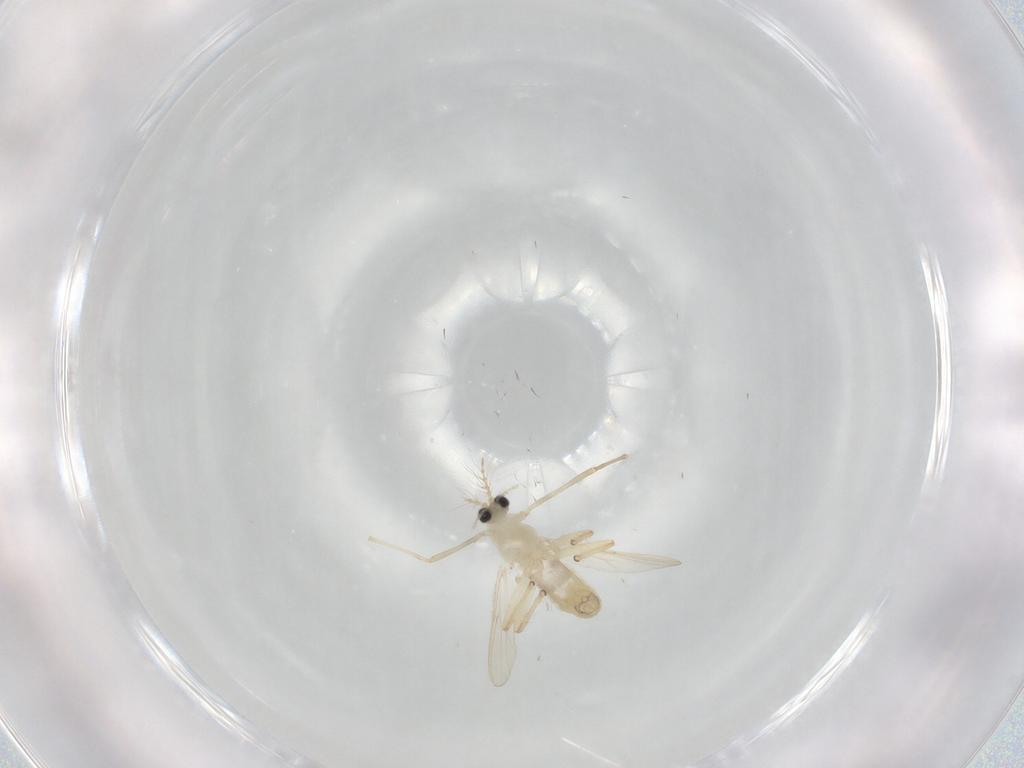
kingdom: Animalia
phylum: Arthropoda
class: Insecta
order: Diptera
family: Chironomidae
